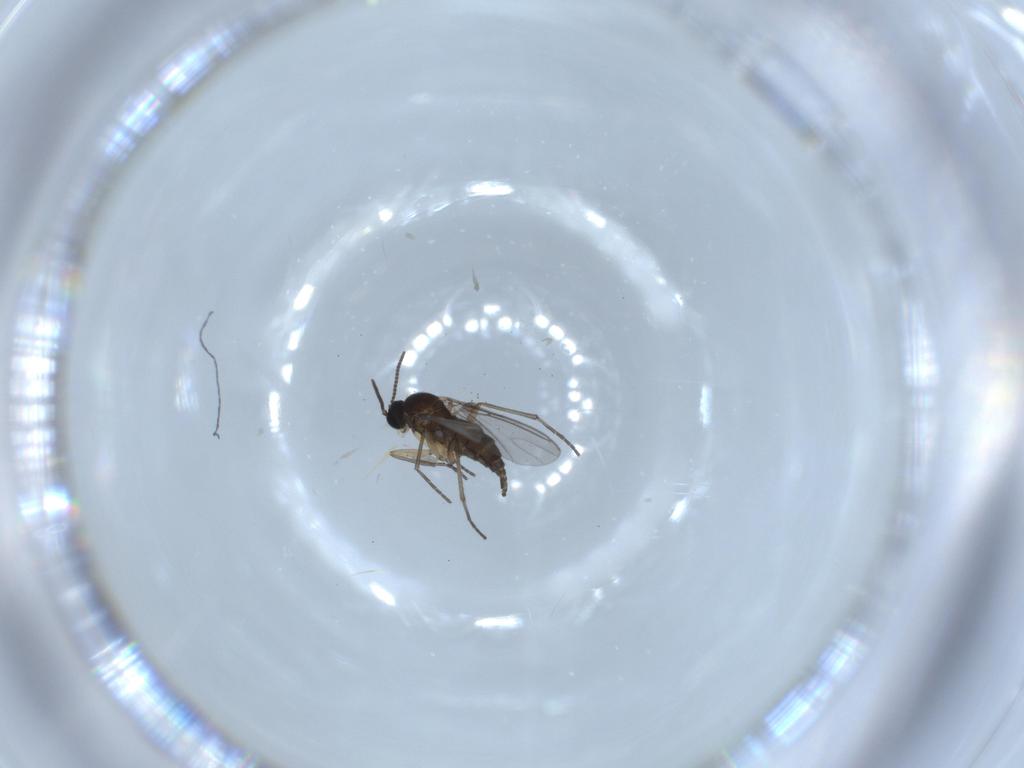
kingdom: Animalia
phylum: Arthropoda
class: Insecta
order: Diptera
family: Sciaridae
